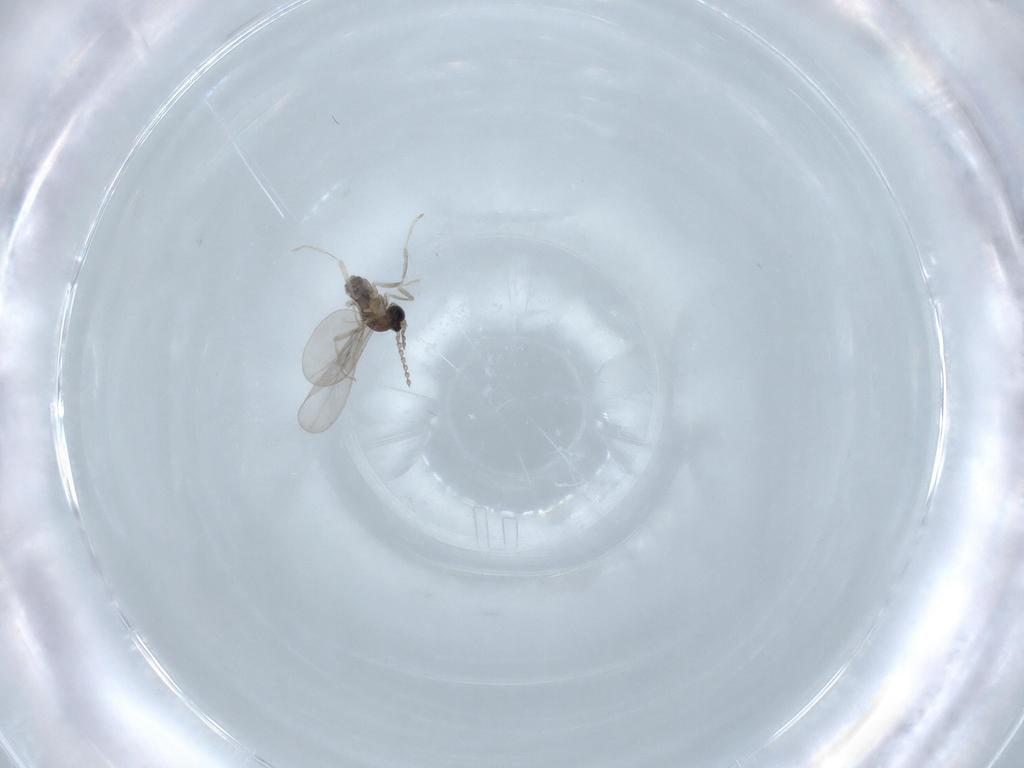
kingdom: Animalia
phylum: Arthropoda
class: Insecta
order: Diptera
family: Cecidomyiidae
